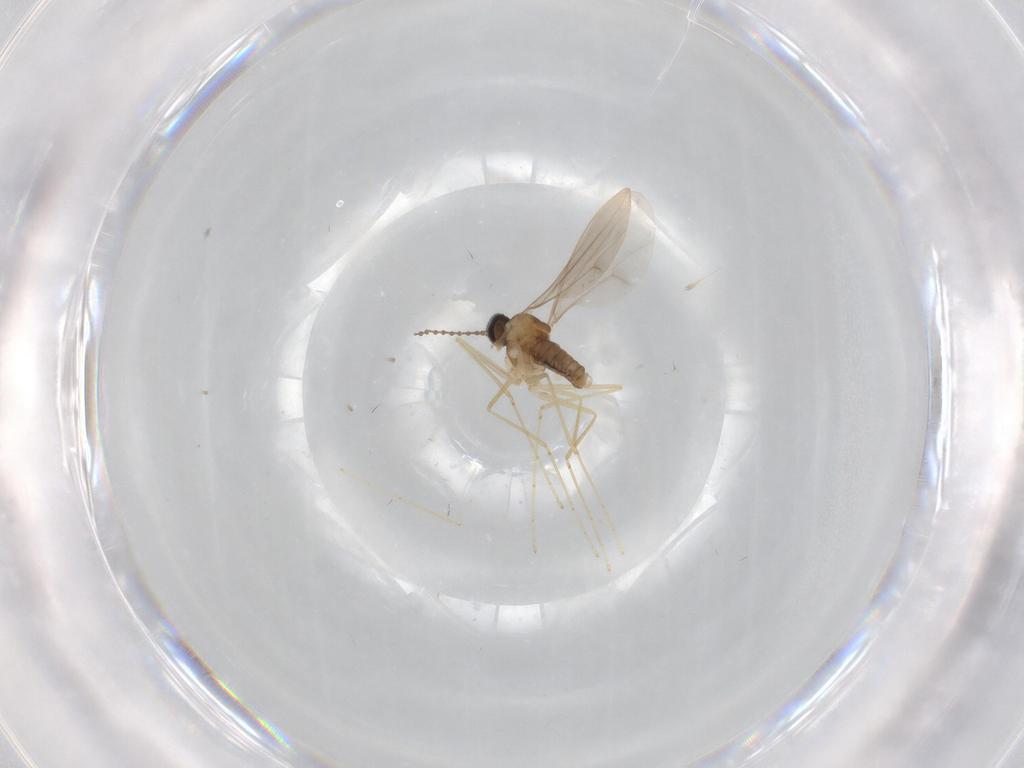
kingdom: Animalia
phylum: Arthropoda
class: Insecta
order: Diptera
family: Cecidomyiidae
